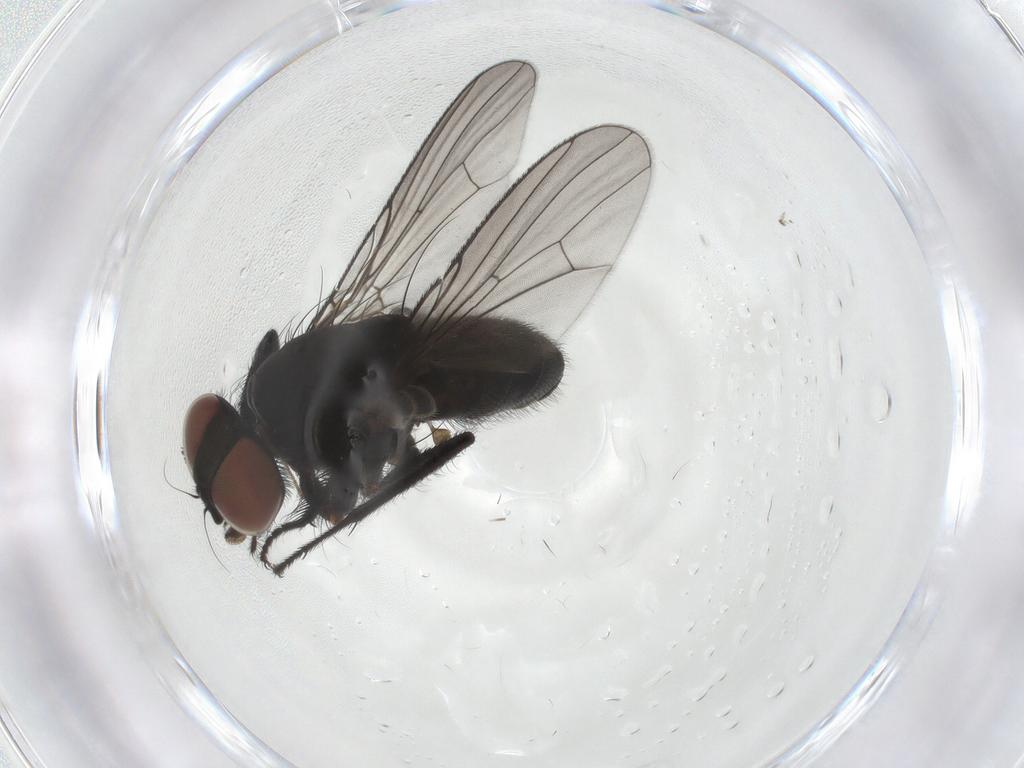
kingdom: Animalia
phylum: Arthropoda
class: Insecta
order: Diptera
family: Muscidae
